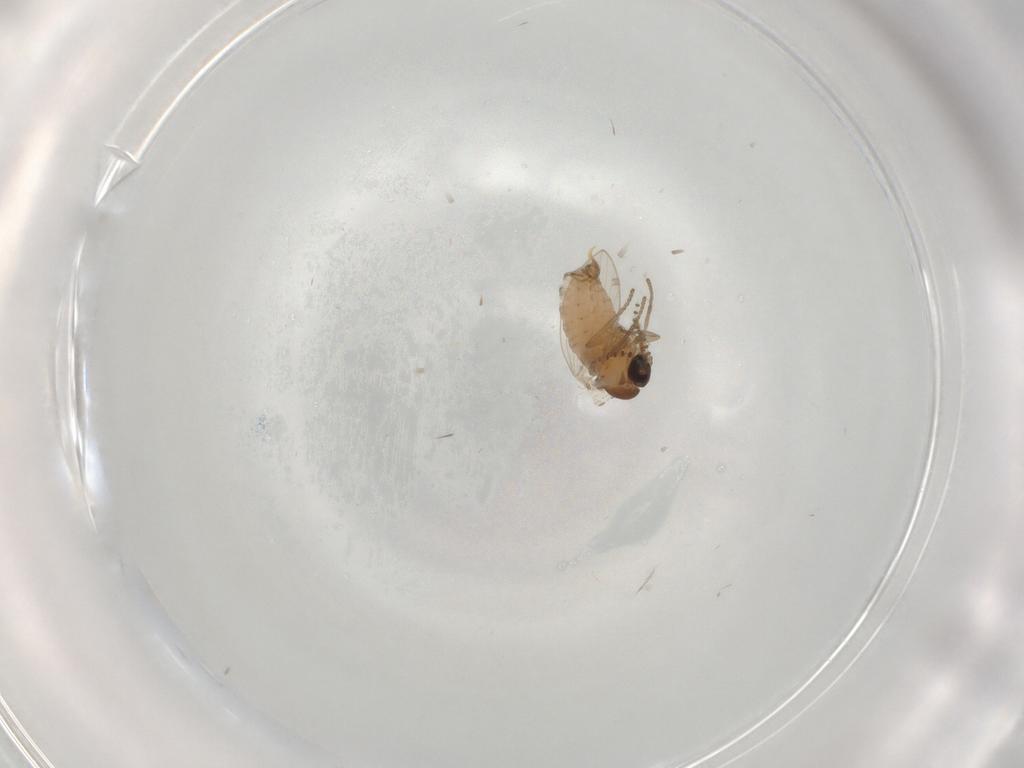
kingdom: Animalia
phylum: Arthropoda
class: Insecta
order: Diptera
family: Psychodidae
